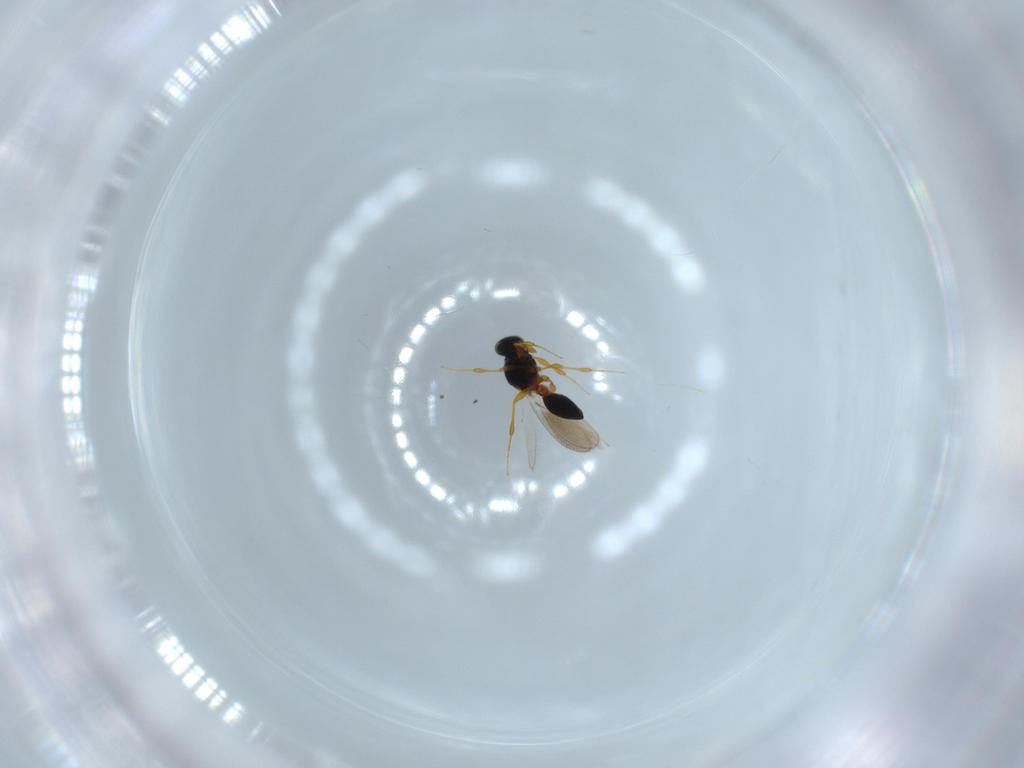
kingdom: Animalia
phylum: Arthropoda
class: Insecta
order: Hymenoptera
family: Platygastridae
